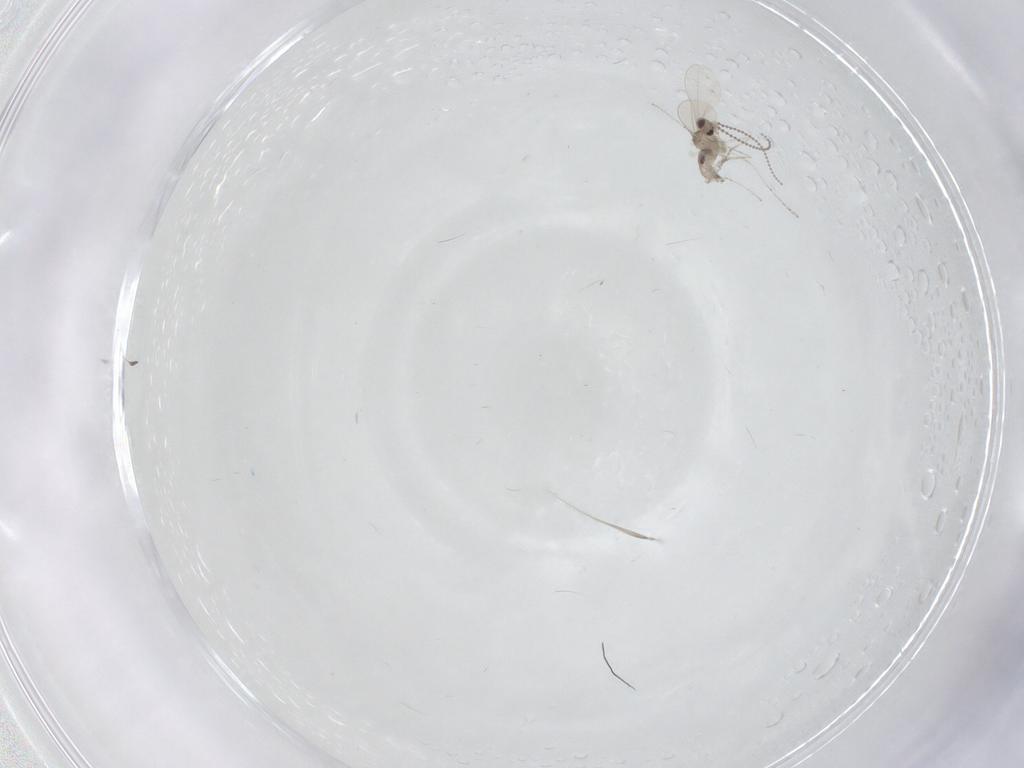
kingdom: Animalia
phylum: Arthropoda
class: Insecta
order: Diptera
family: Cecidomyiidae
